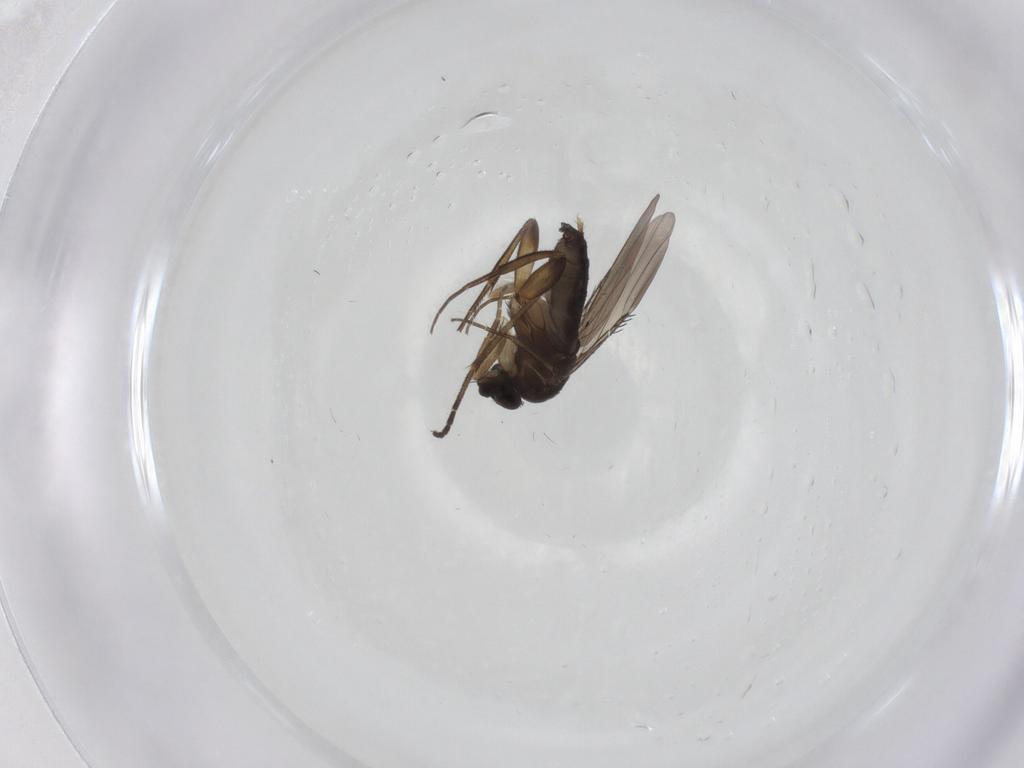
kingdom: Animalia
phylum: Arthropoda
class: Insecta
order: Diptera
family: Phoridae
